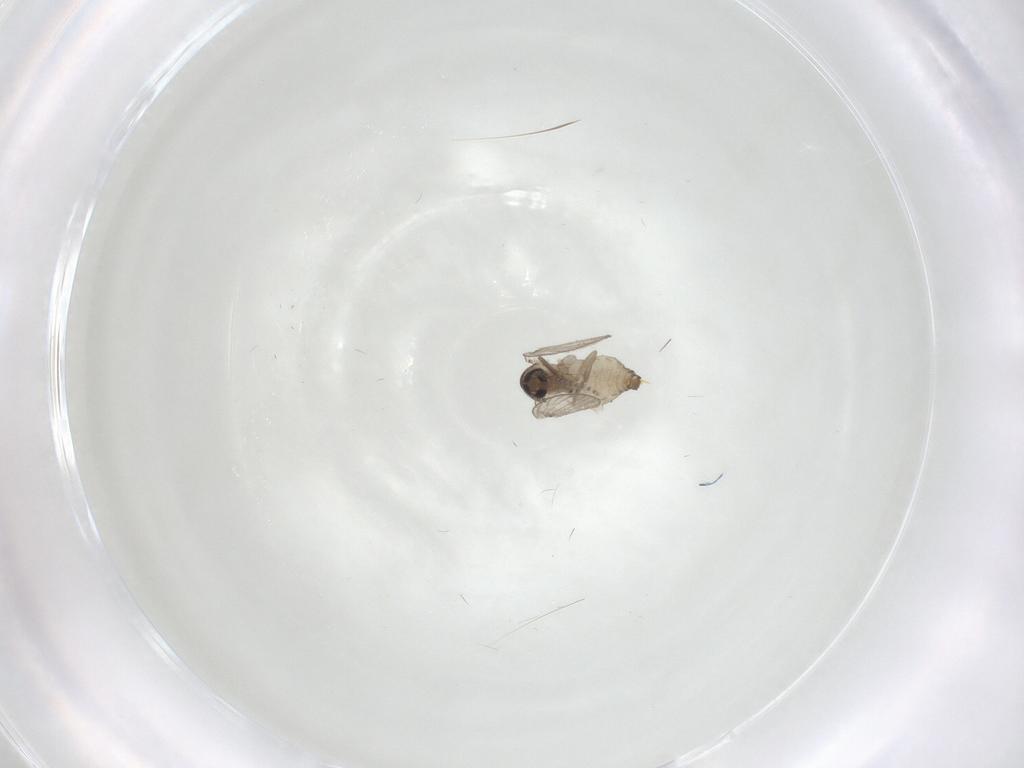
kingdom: Animalia
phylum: Arthropoda
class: Insecta
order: Diptera
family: Psychodidae
